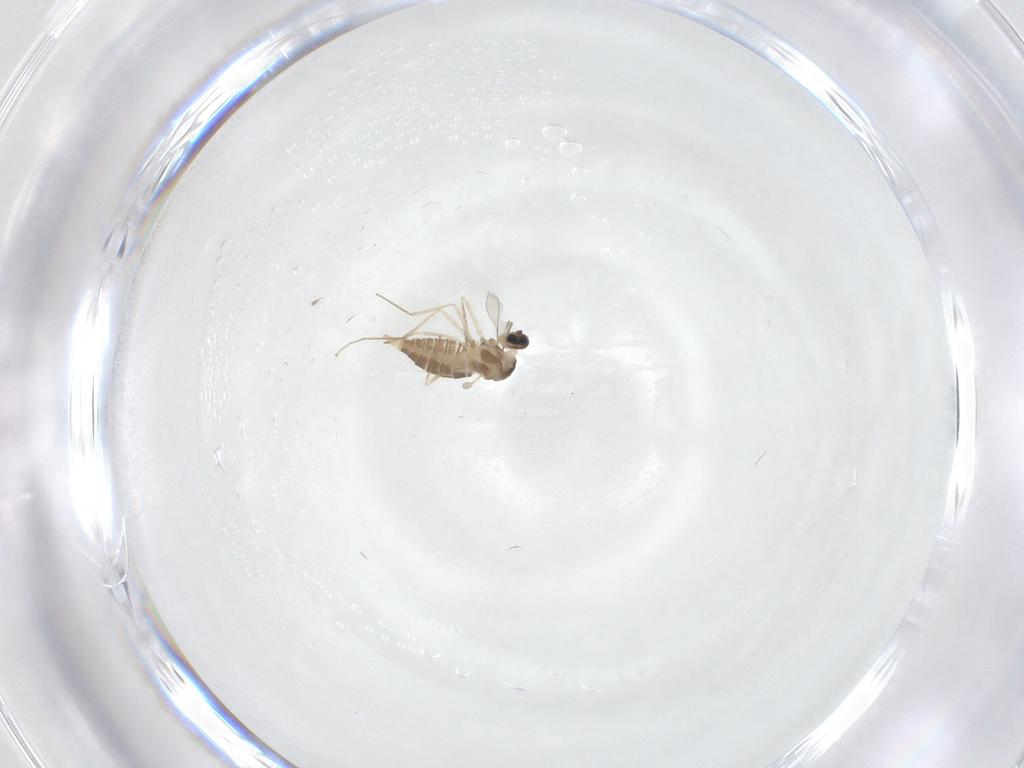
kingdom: Animalia
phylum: Arthropoda
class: Insecta
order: Diptera
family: Cecidomyiidae
